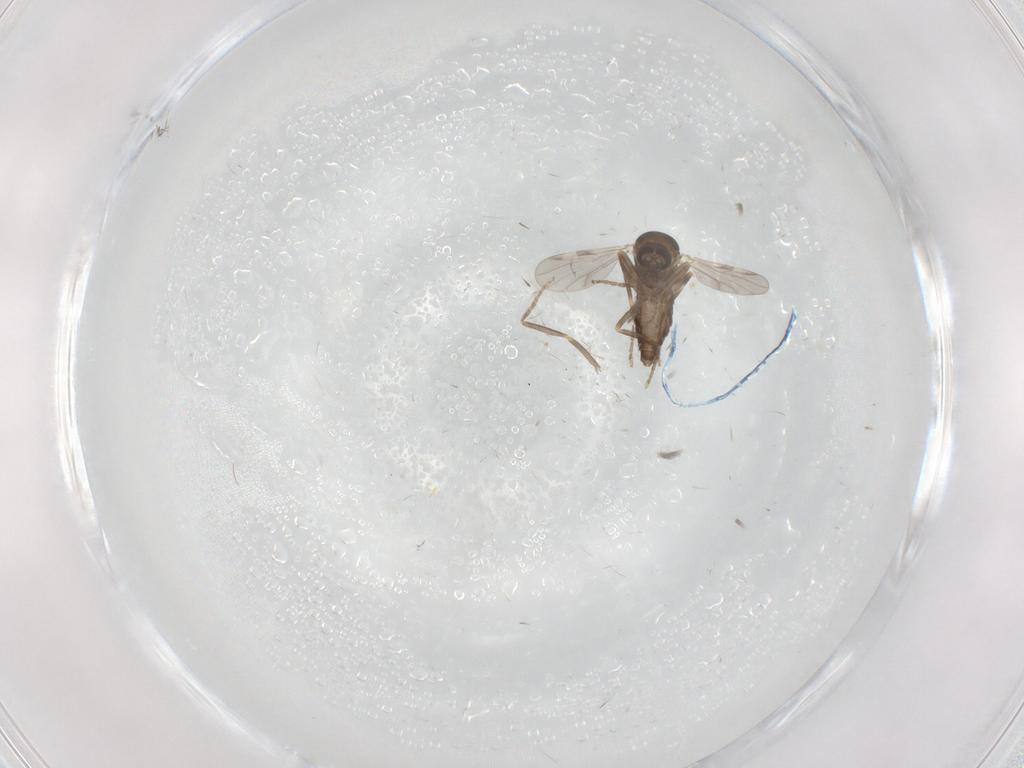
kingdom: Animalia
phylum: Arthropoda
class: Insecta
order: Diptera
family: Ceratopogonidae
